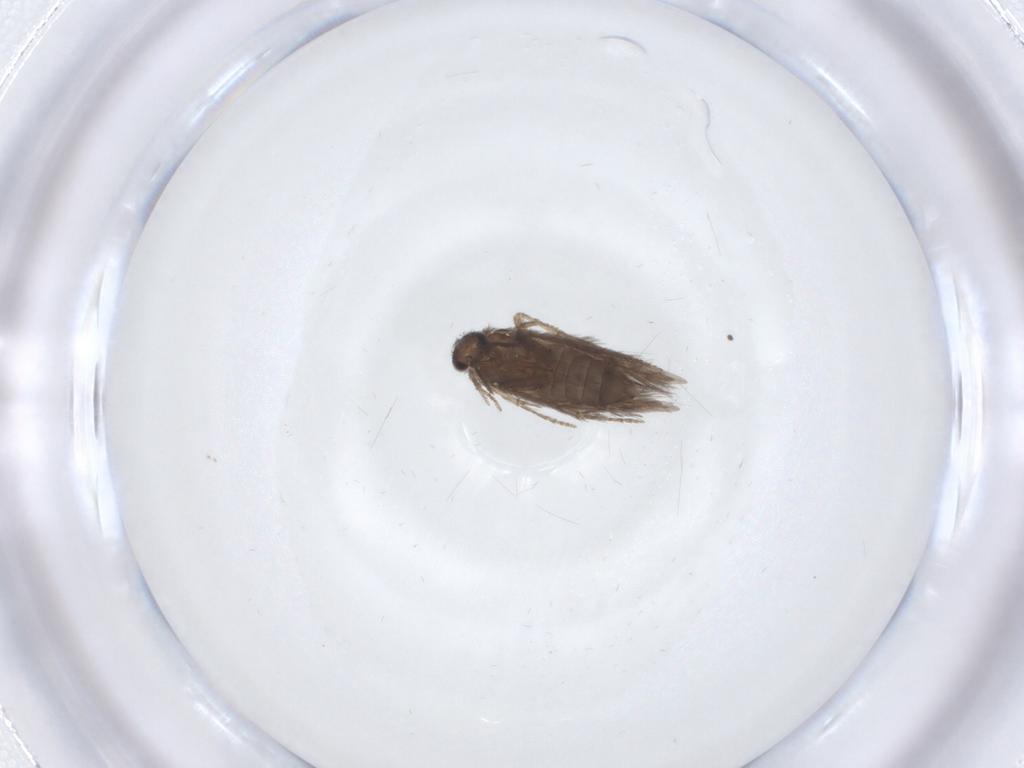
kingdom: Animalia
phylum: Arthropoda
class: Insecta
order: Trichoptera
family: Hydroptilidae
